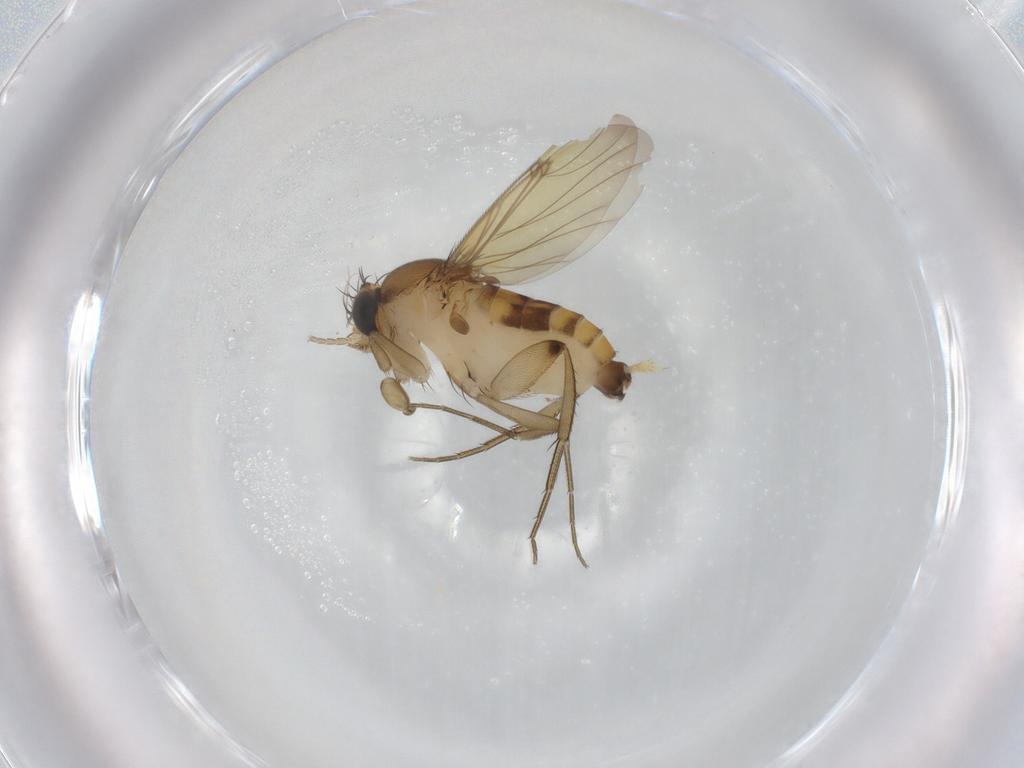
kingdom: Animalia
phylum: Arthropoda
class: Insecta
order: Diptera
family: Phoridae
